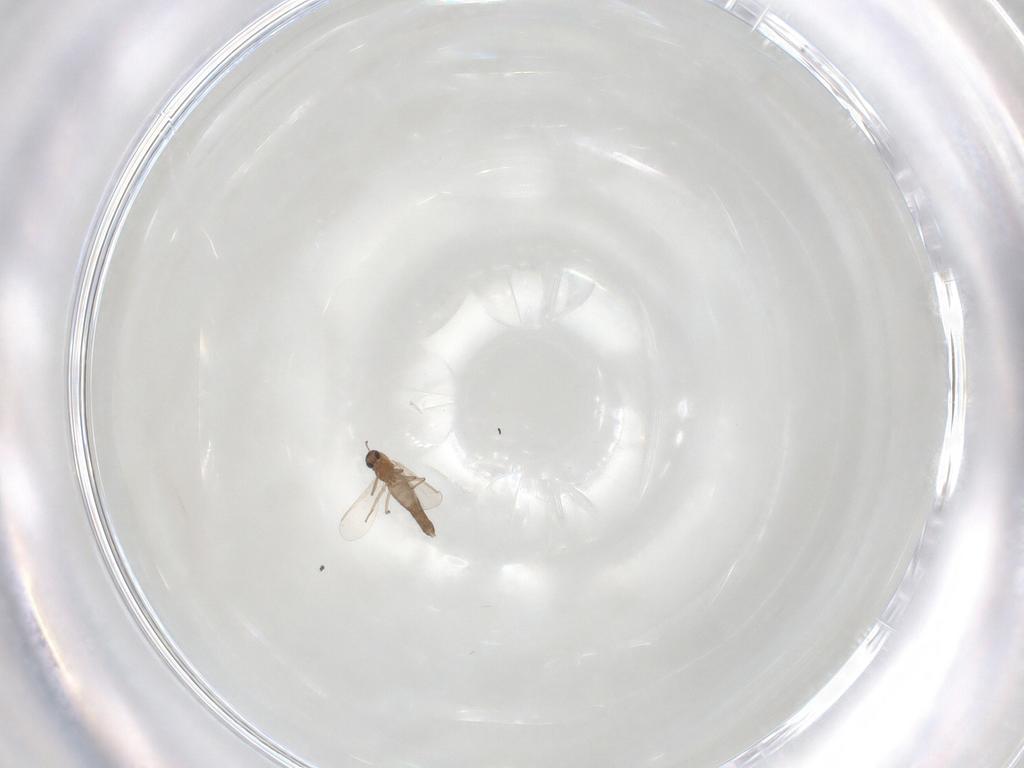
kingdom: Animalia
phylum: Arthropoda
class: Insecta
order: Diptera
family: Chironomidae
